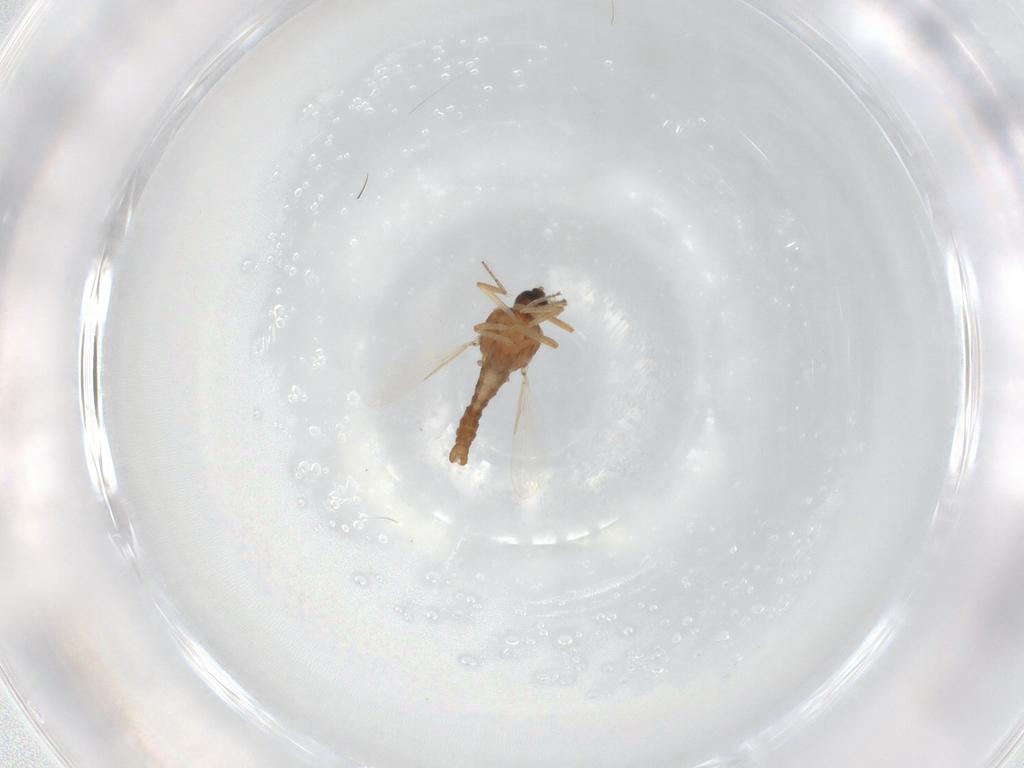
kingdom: Animalia
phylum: Arthropoda
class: Insecta
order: Diptera
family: Ceratopogonidae
